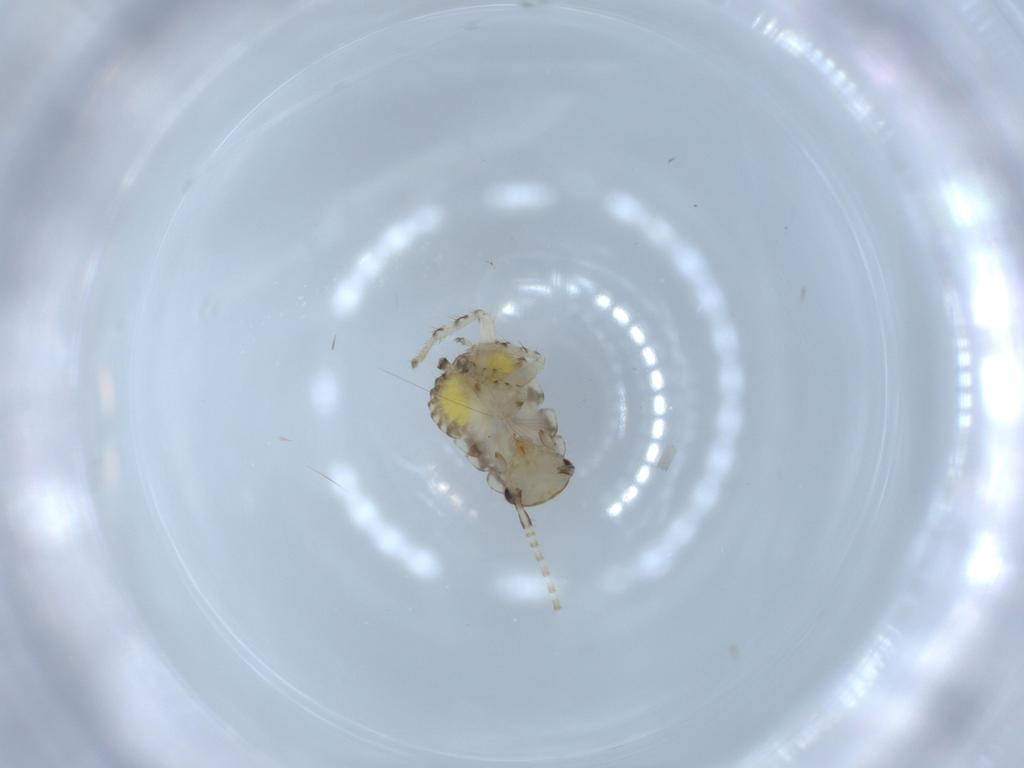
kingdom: Animalia
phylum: Arthropoda
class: Insecta
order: Blattodea
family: Ectobiidae
